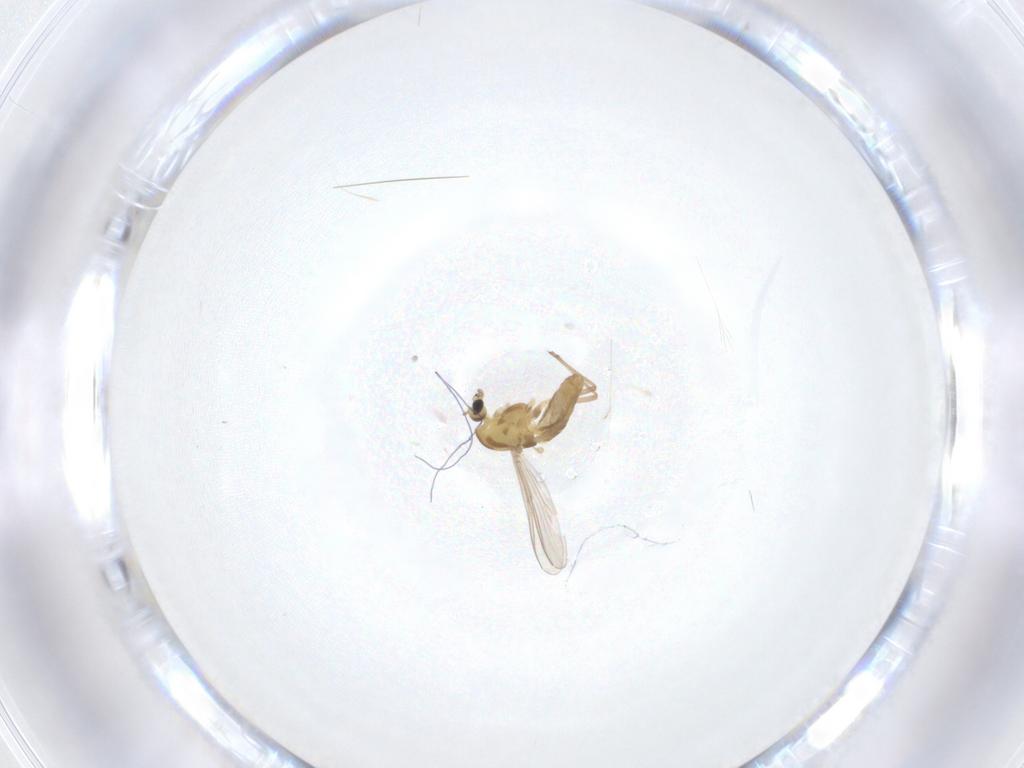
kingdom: Animalia
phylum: Arthropoda
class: Insecta
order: Diptera
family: Chironomidae
